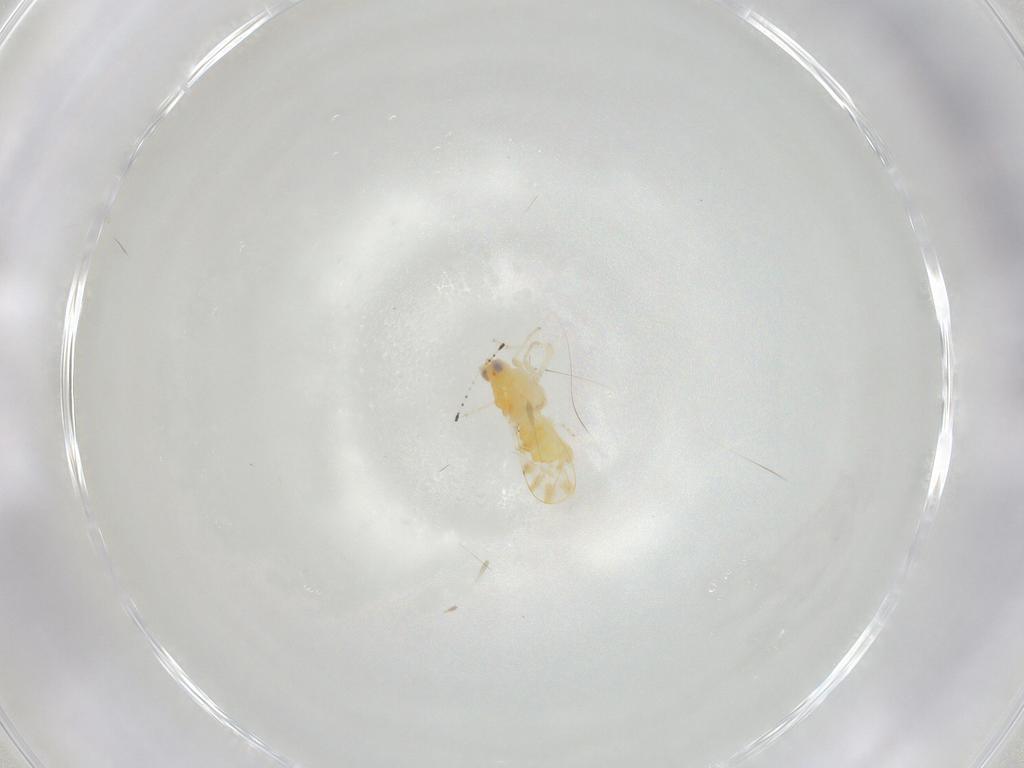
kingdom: Animalia
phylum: Arthropoda
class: Insecta
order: Hemiptera
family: Aphalaridae
